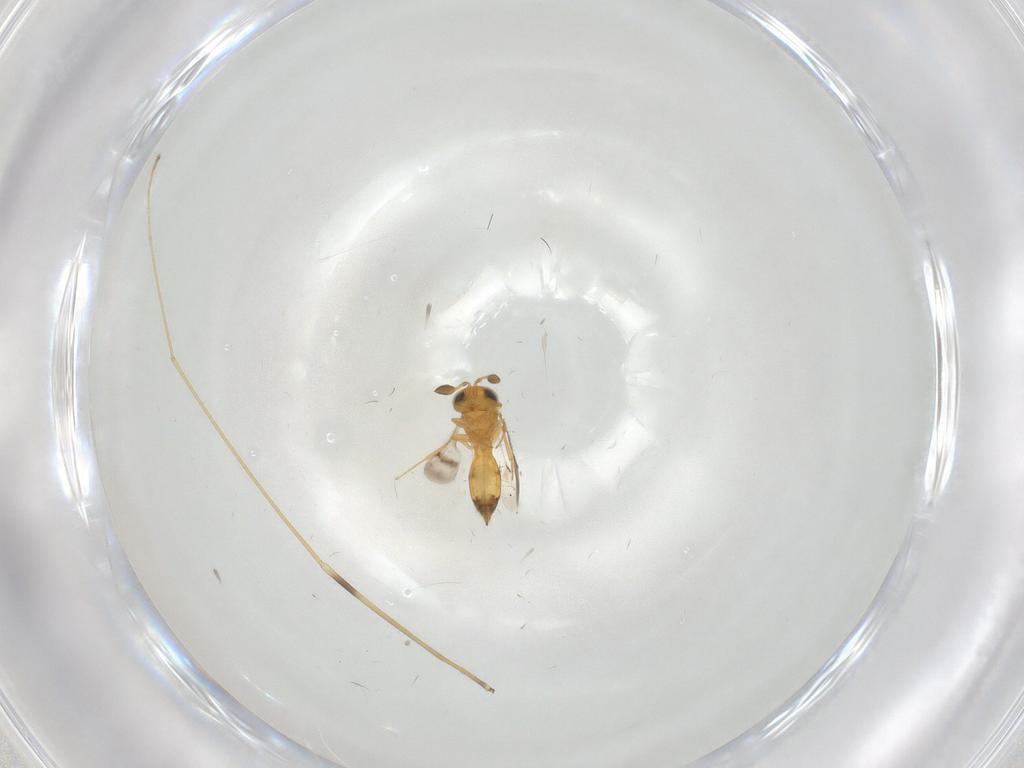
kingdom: Animalia
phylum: Arthropoda
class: Insecta
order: Hymenoptera
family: Scelionidae
